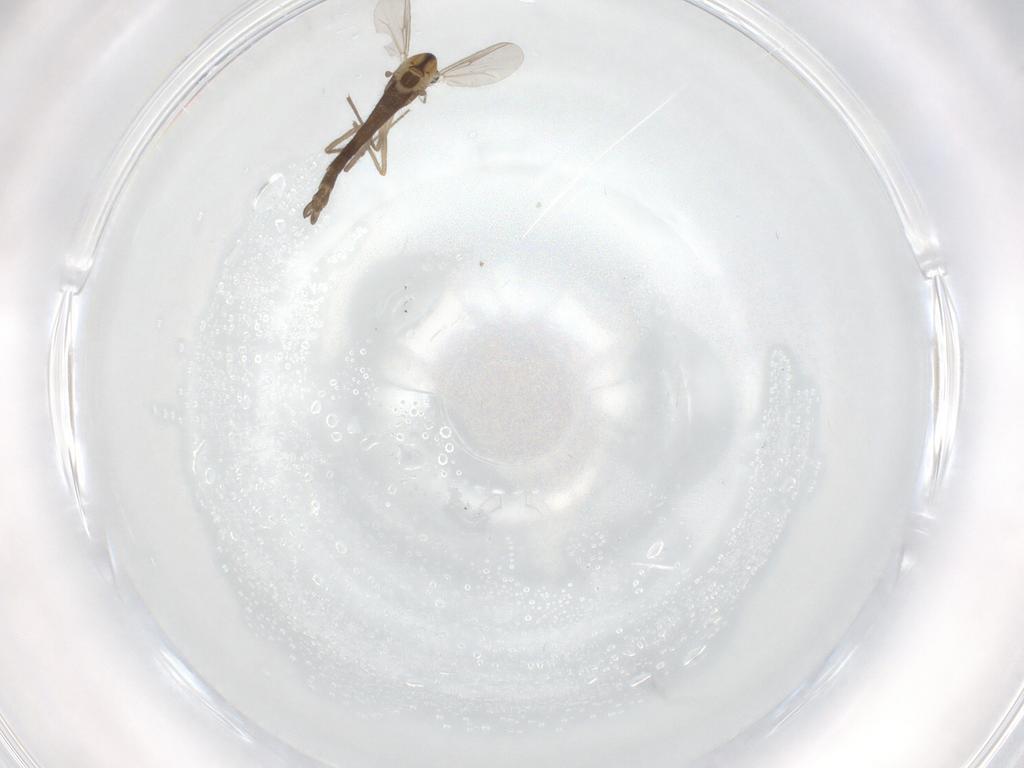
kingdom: Animalia
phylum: Arthropoda
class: Insecta
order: Diptera
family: Chironomidae
